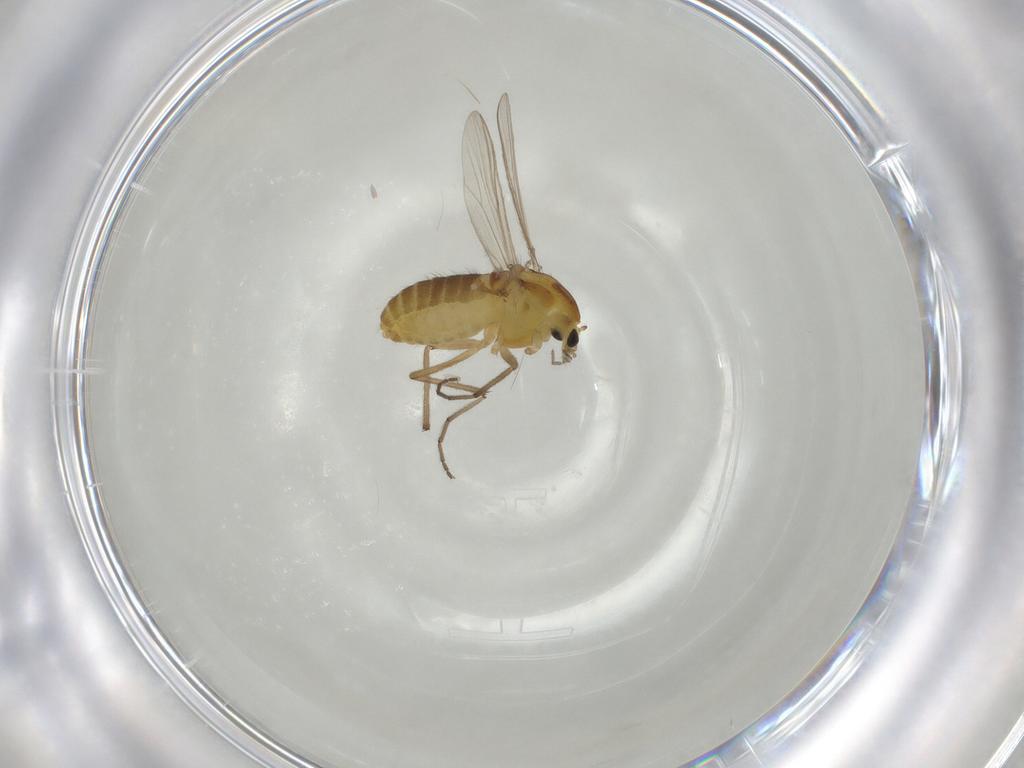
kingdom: Animalia
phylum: Arthropoda
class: Insecta
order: Diptera
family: Chironomidae
